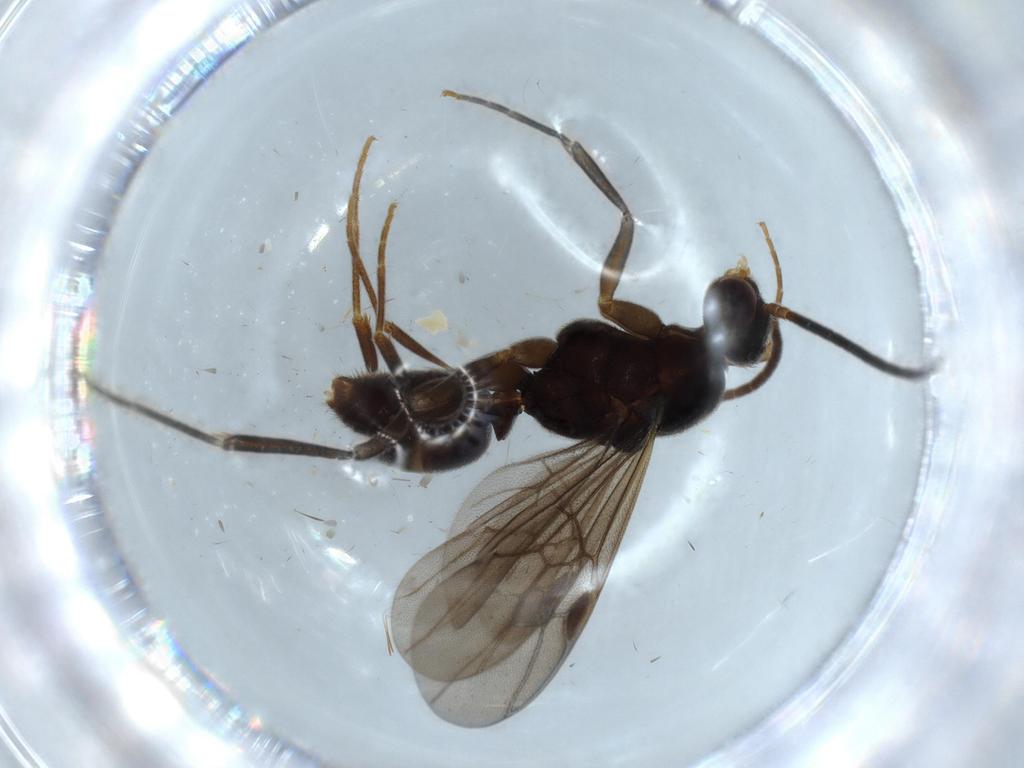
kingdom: Animalia
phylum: Arthropoda
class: Insecta
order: Hymenoptera
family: Formicidae
